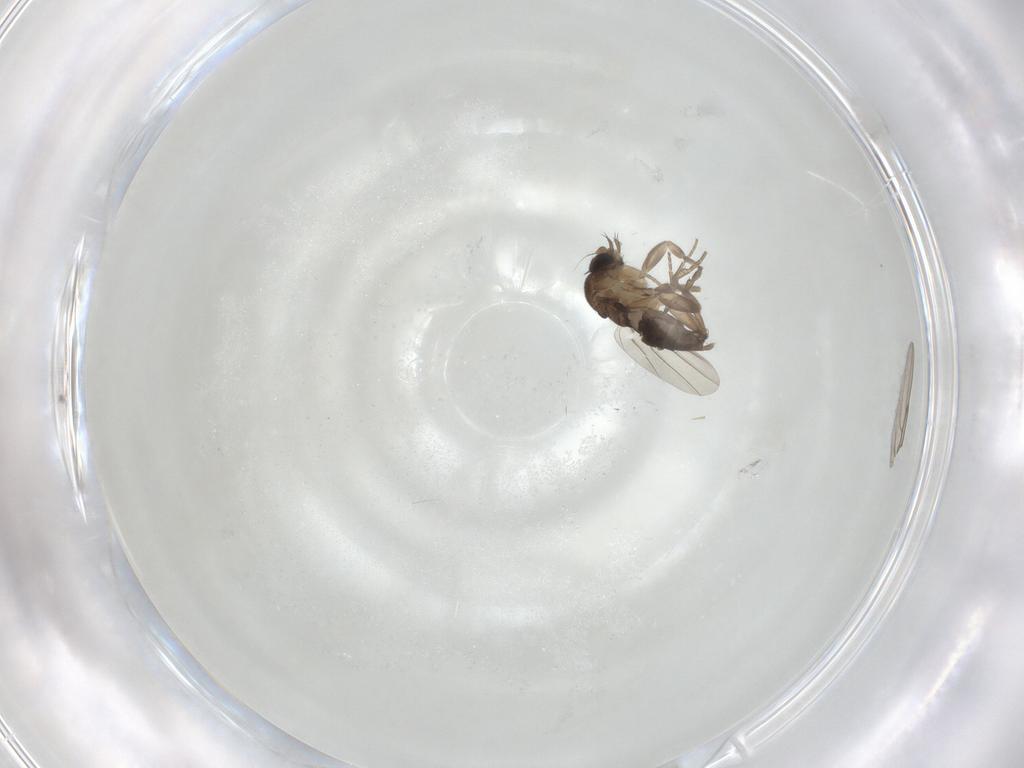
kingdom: Animalia
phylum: Arthropoda
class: Insecta
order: Diptera
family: Phoridae
